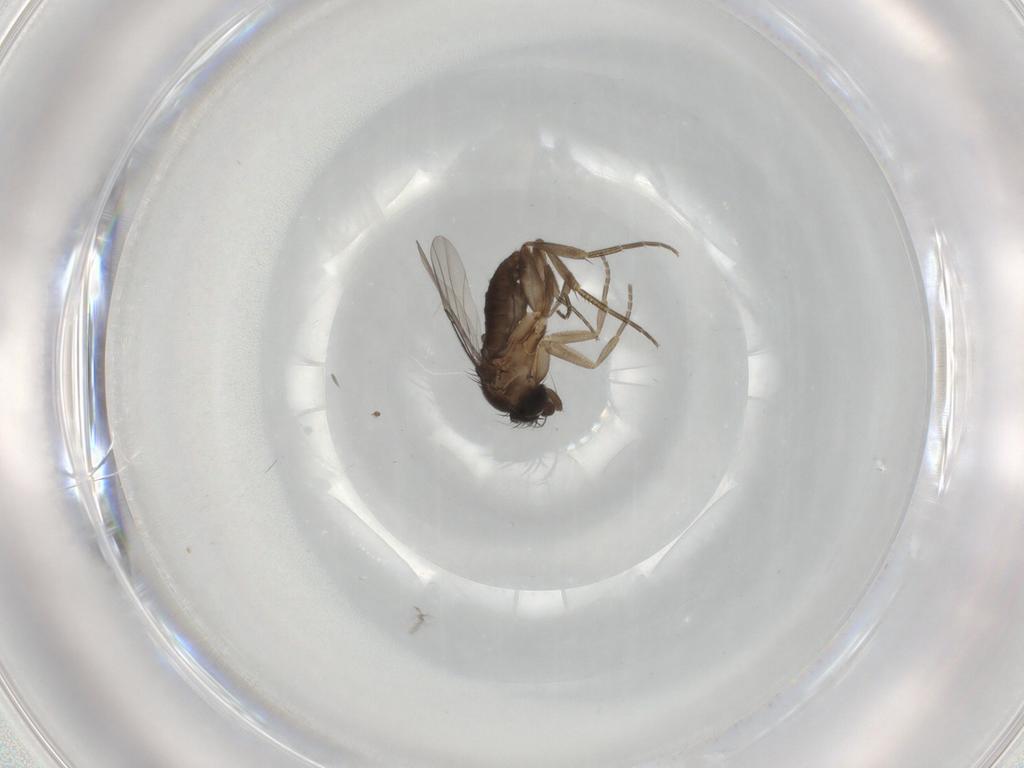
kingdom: Animalia
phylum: Arthropoda
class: Insecta
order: Diptera
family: Phoridae
